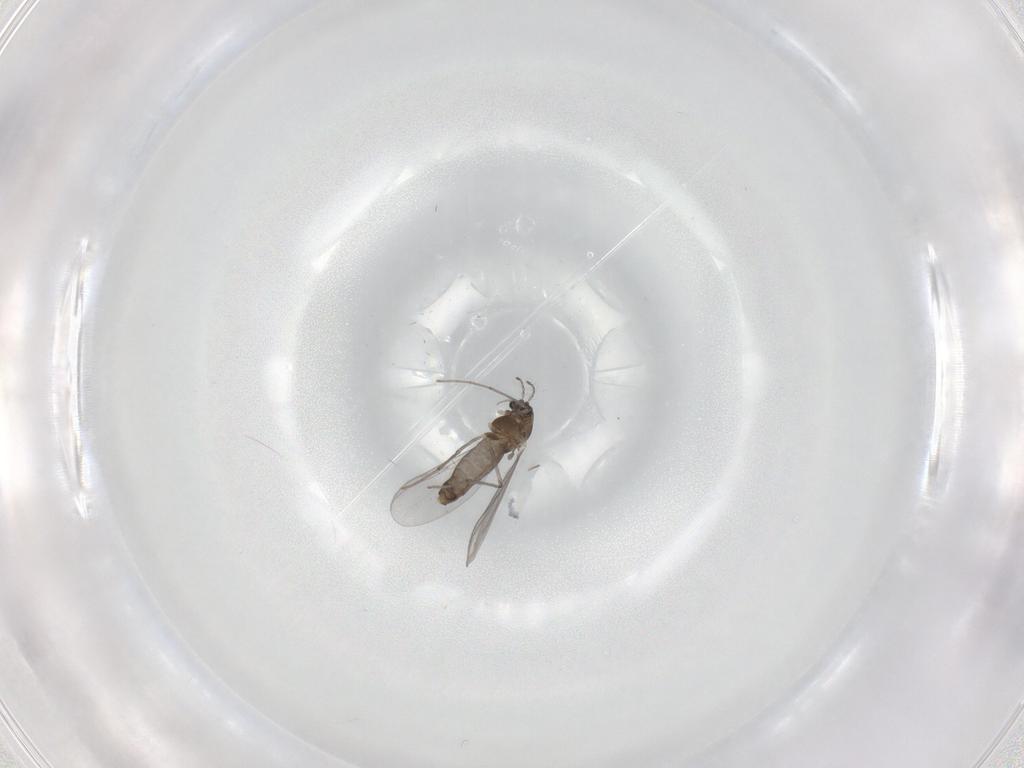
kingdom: Animalia
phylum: Arthropoda
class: Insecta
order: Diptera
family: Chironomidae
